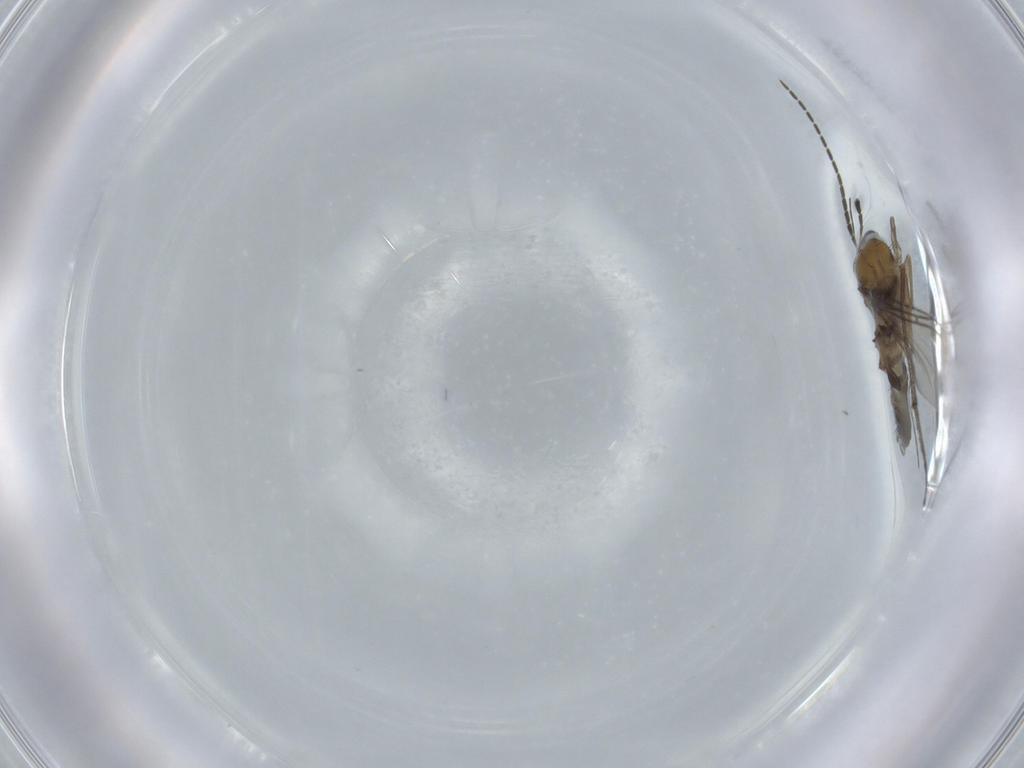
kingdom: Animalia
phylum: Arthropoda
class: Insecta
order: Diptera
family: Sciaridae
